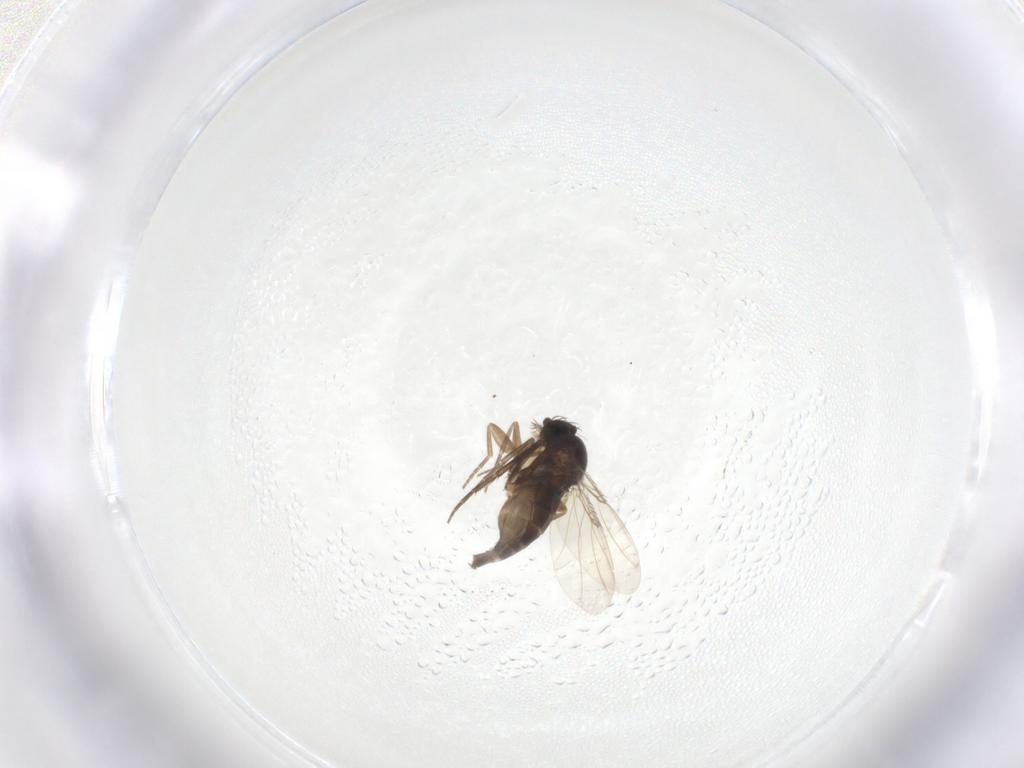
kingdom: Animalia
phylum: Arthropoda
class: Insecta
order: Diptera
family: Phoridae
